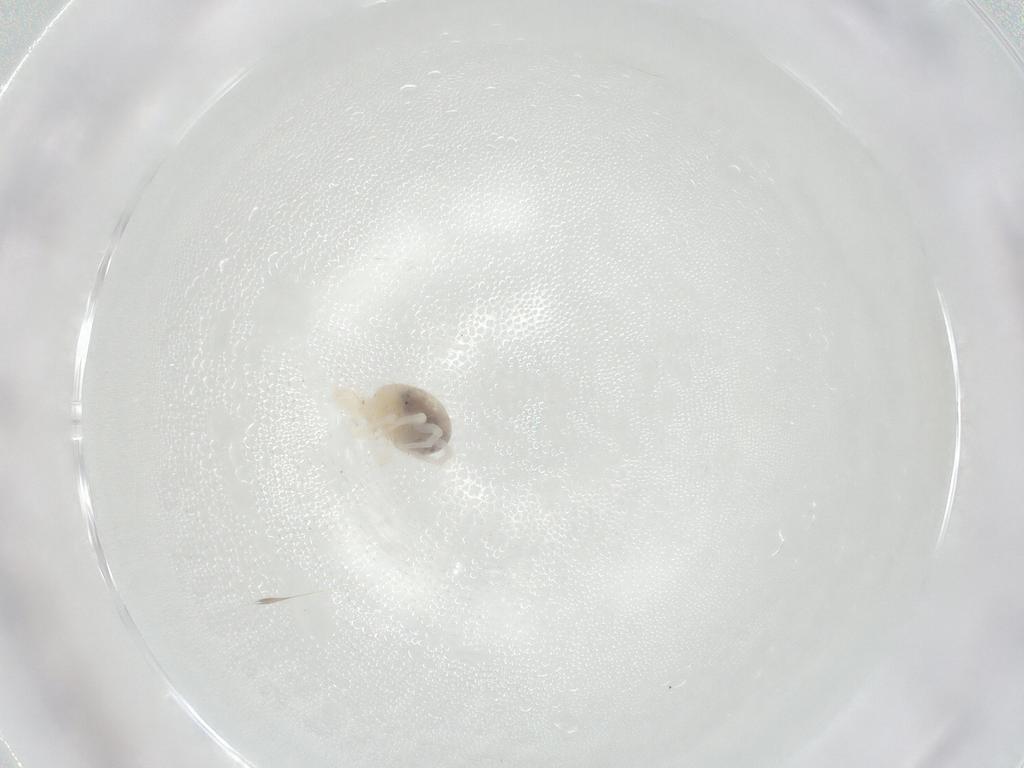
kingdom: Animalia
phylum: Arthropoda
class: Arachnida
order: Trombidiformes
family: Anystidae
